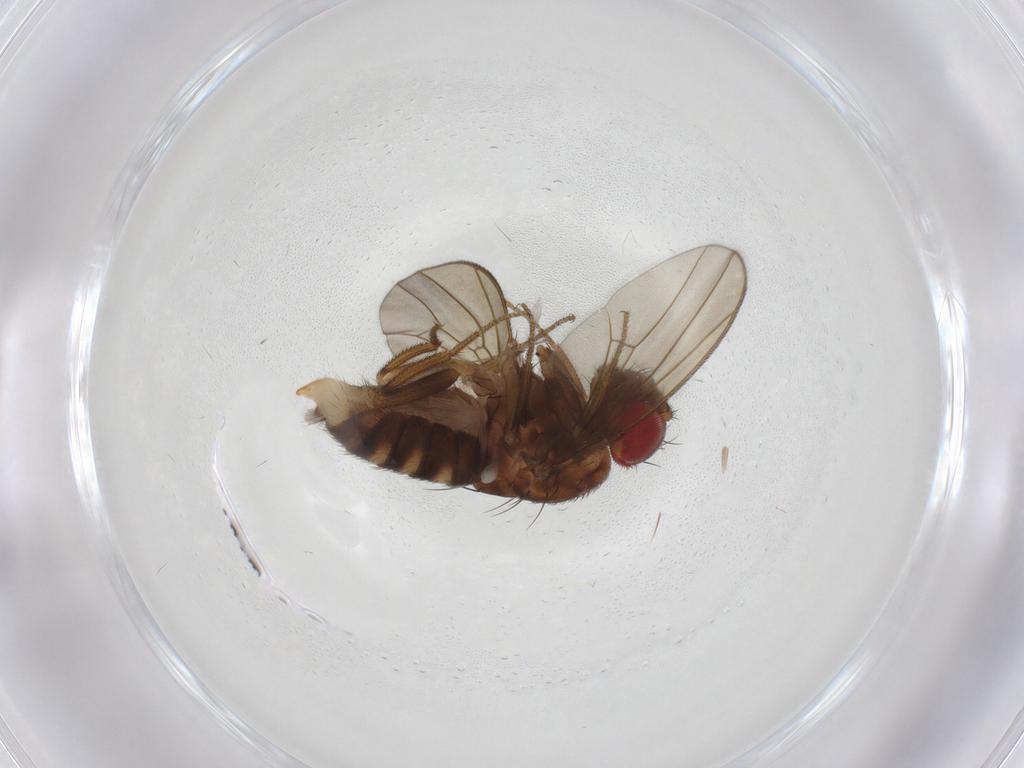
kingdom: Animalia
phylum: Arthropoda
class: Insecta
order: Diptera
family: Drosophilidae
